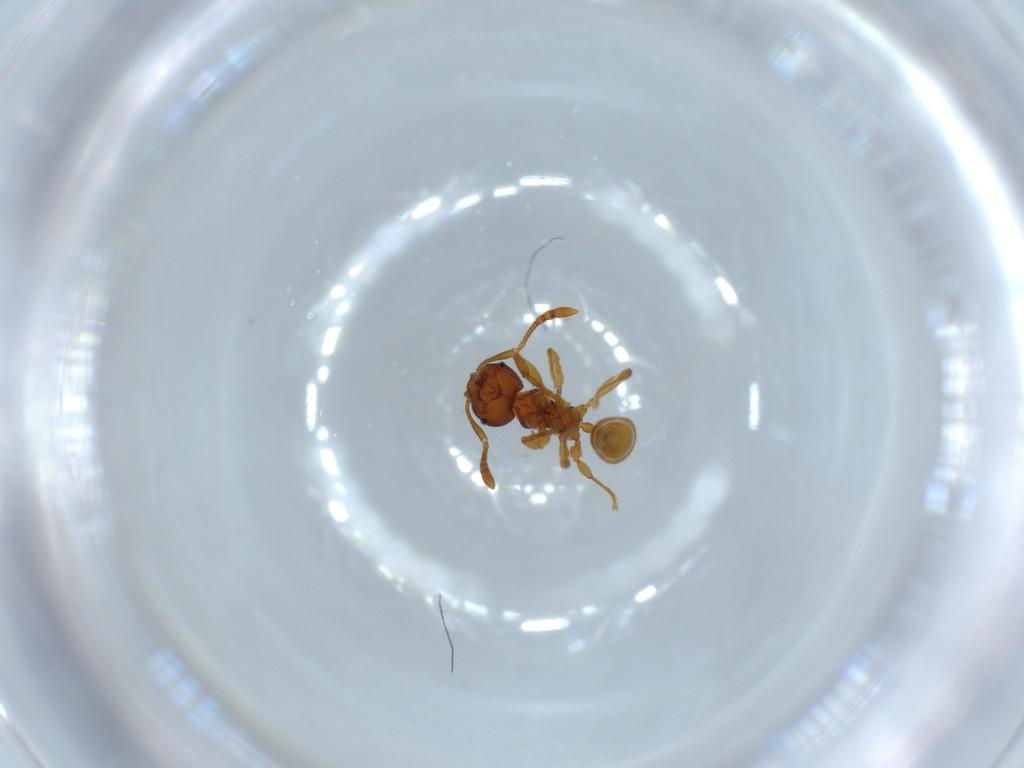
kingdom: Animalia
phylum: Arthropoda
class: Insecta
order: Hymenoptera
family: Formicidae
